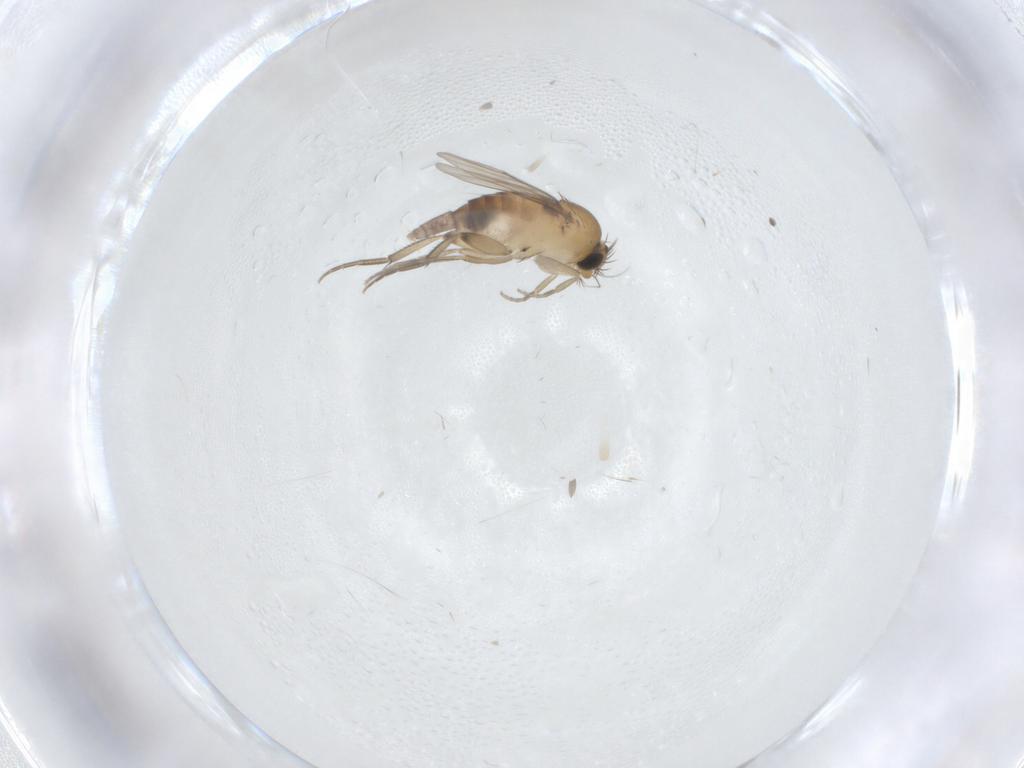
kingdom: Animalia
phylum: Arthropoda
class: Insecta
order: Diptera
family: Phoridae
